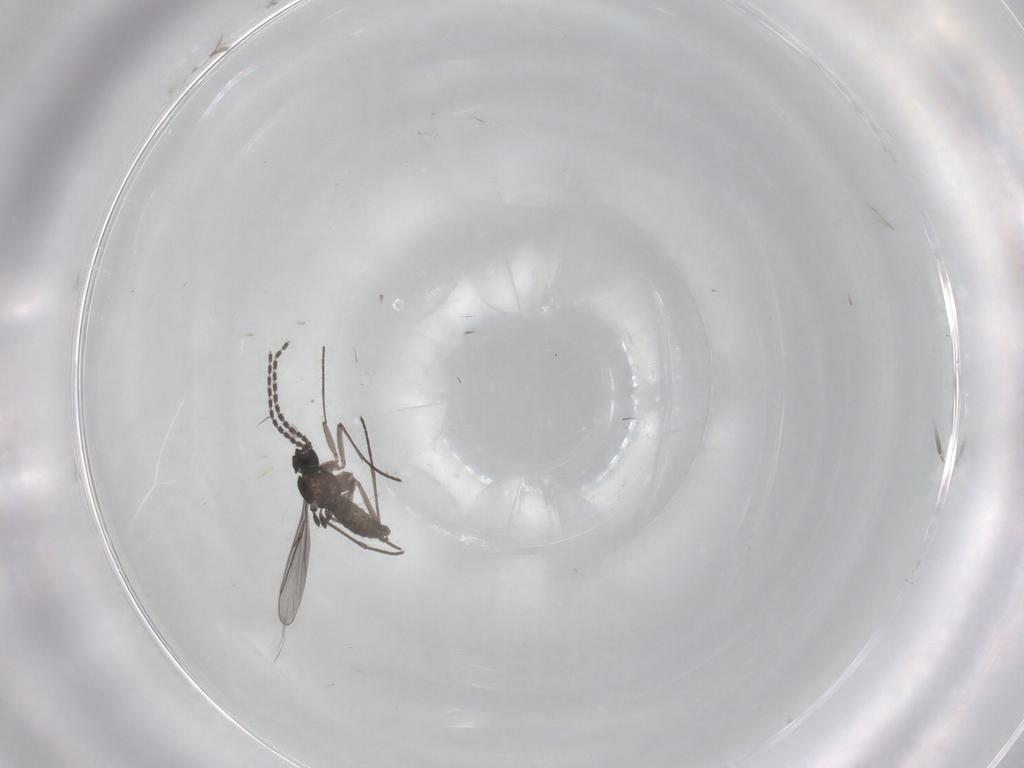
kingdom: Animalia
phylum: Arthropoda
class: Insecta
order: Diptera
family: Cecidomyiidae
